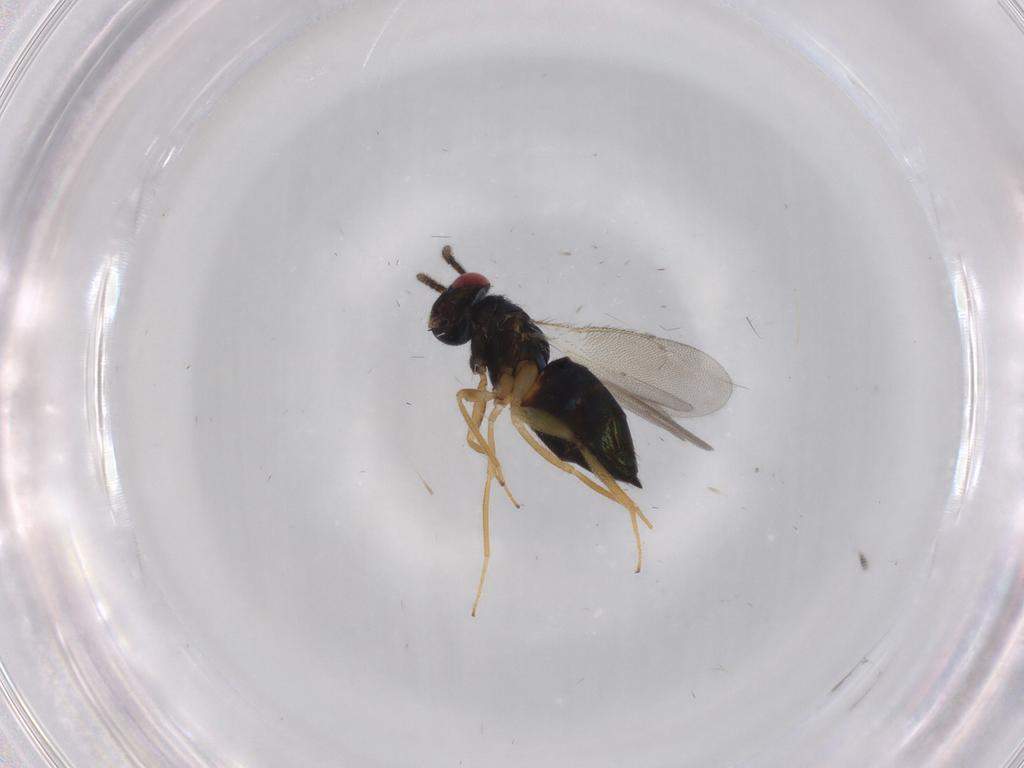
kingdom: Animalia
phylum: Arthropoda
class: Insecta
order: Hymenoptera
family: Eulophidae
